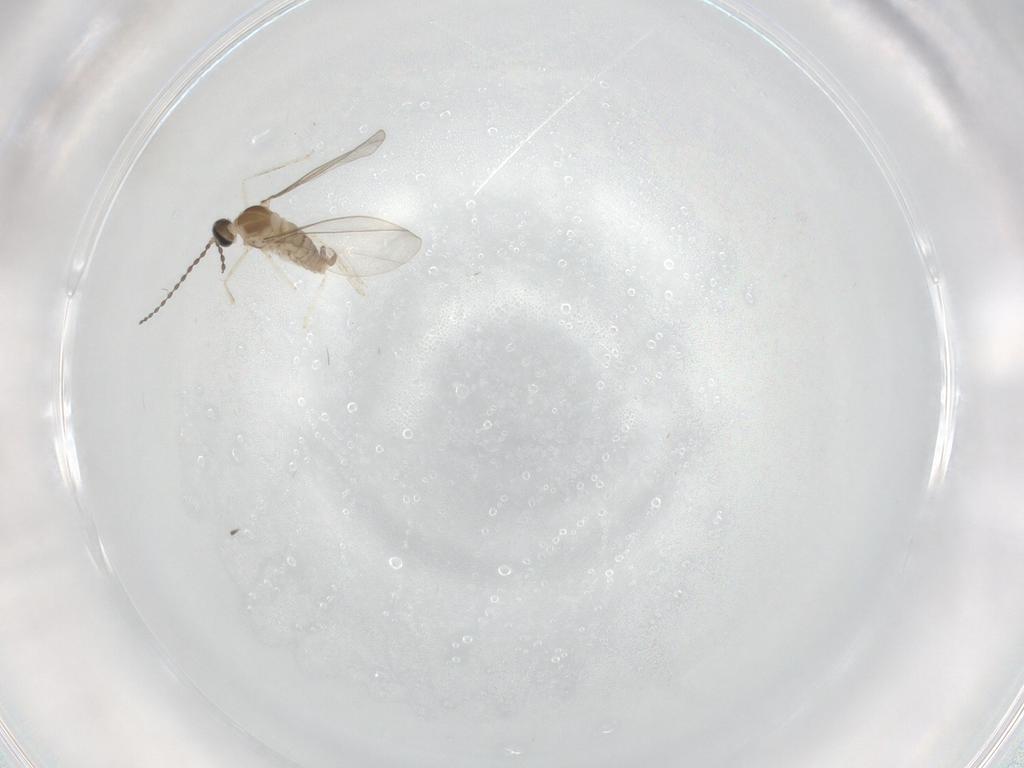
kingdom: Animalia
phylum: Arthropoda
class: Insecta
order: Diptera
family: Cecidomyiidae
